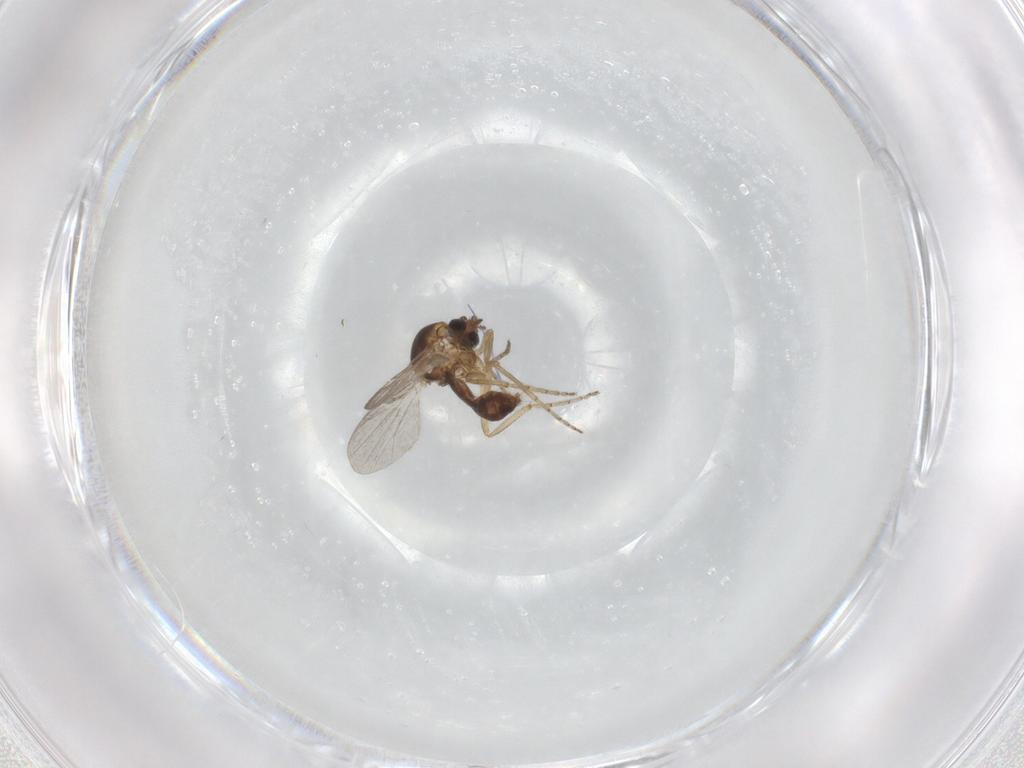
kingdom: Animalia
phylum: Arthropoda
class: Insecta
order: Diptera
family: Ceratopogonidae
